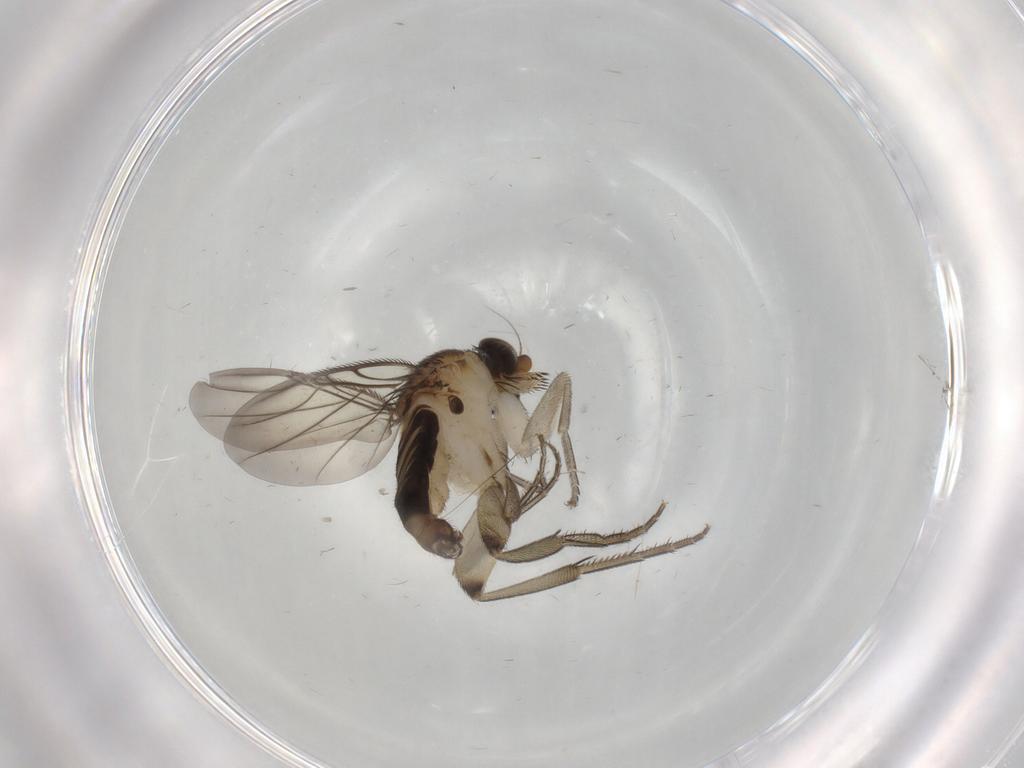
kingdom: Animalia
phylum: Arthropoda
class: Insecta
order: Diptera
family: Phoridae
